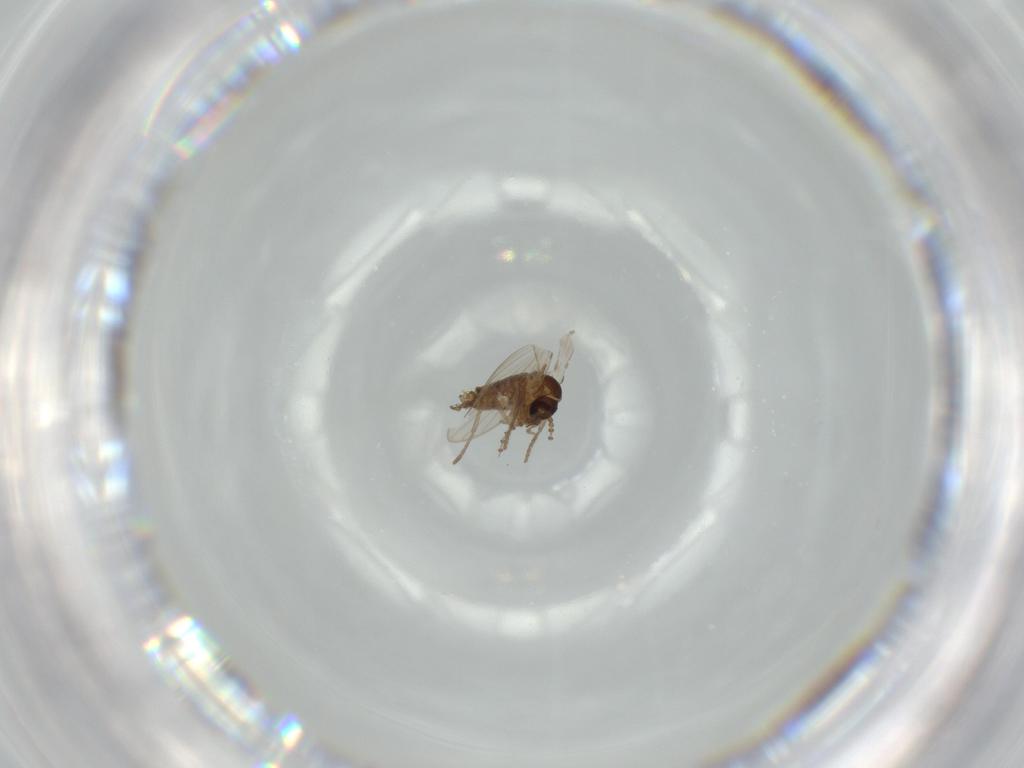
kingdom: Animalia
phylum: Arthropoda
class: Insecta
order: Diptera
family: Psychodidae
